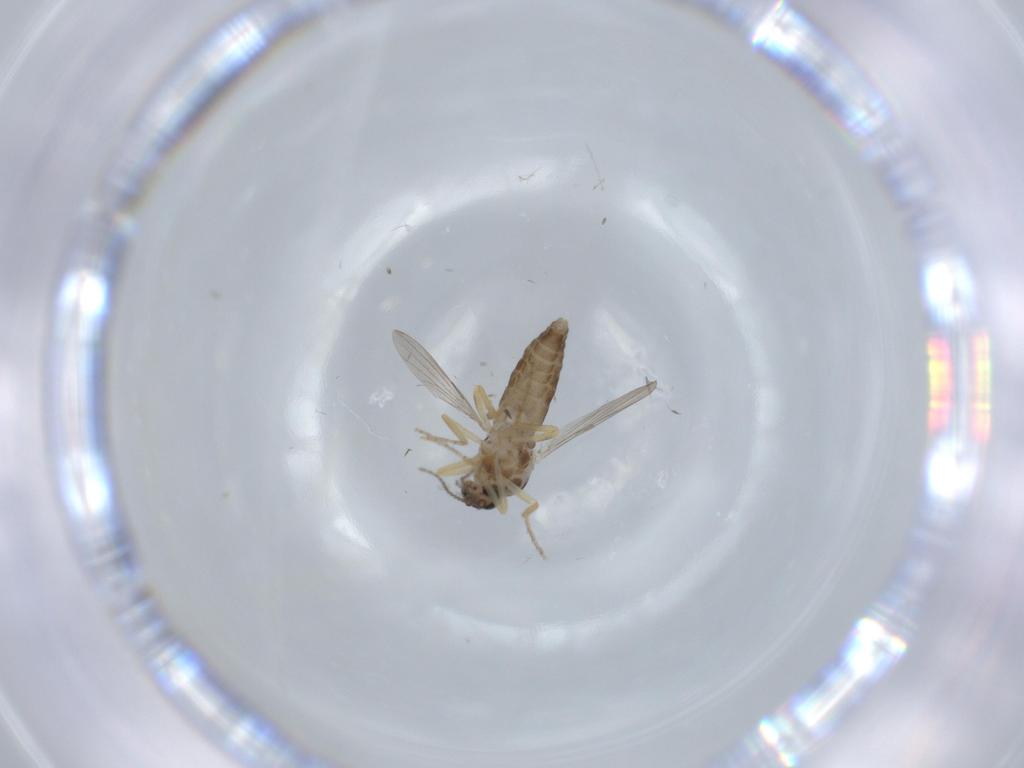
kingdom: Animalia
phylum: Arthropoda
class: Insecta
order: Diptera
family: Ceratopogonidae
